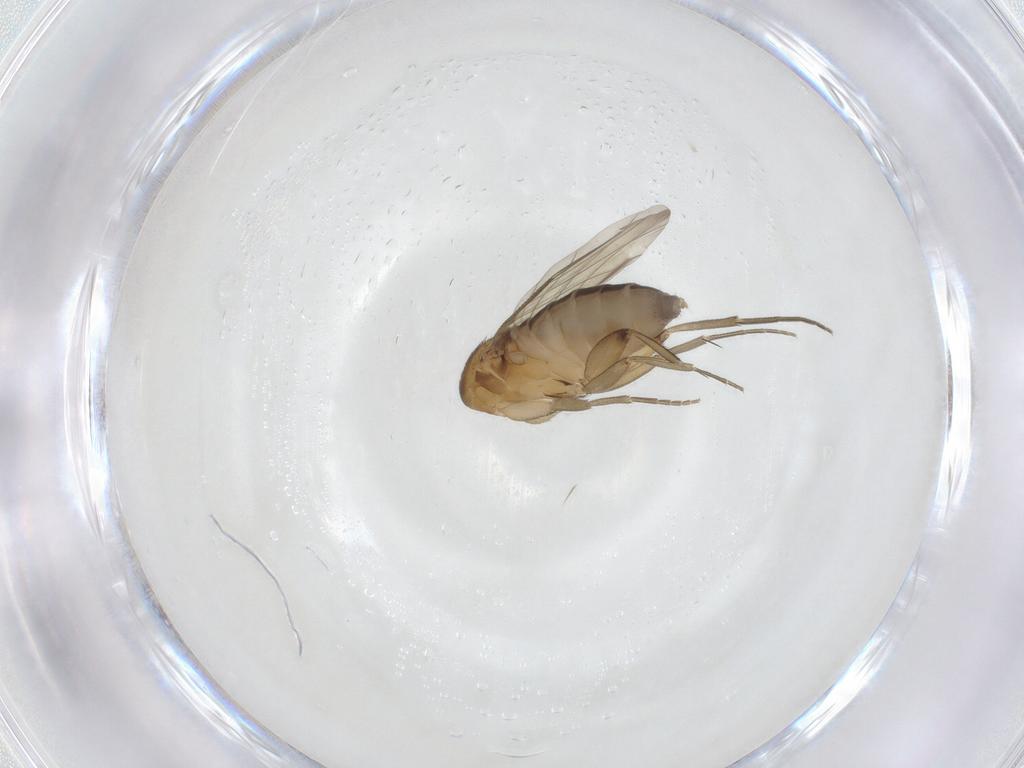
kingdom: Animalia
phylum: Arthropoda
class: Insecta
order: Diptera
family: Phoridae
